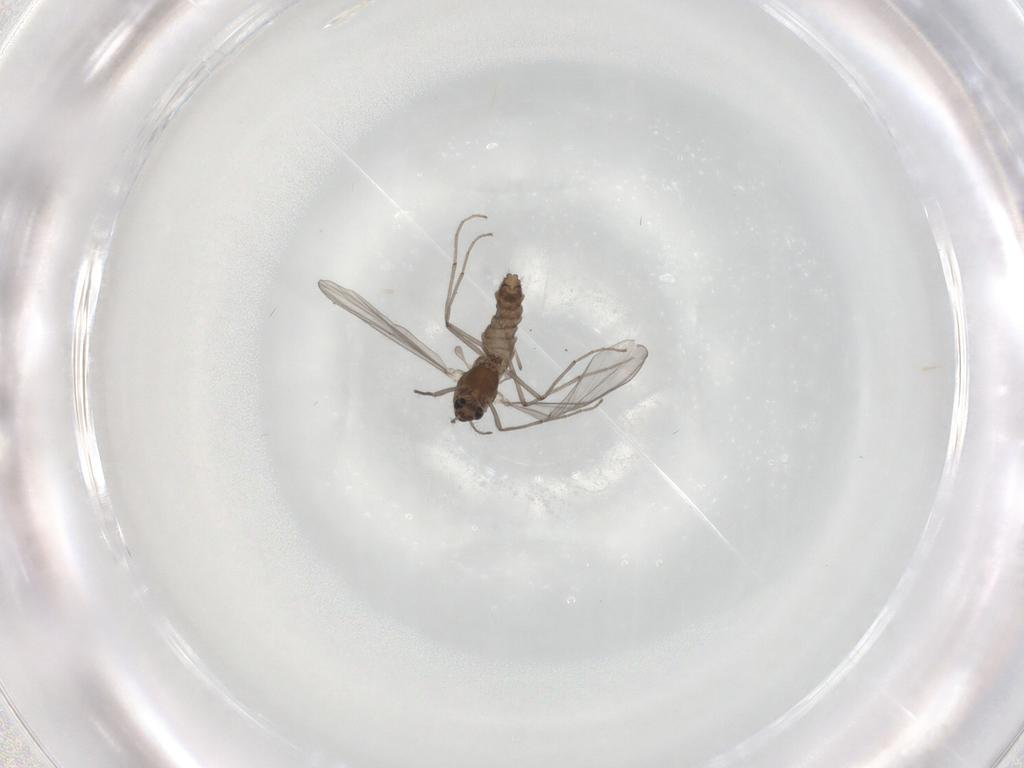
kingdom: Animalia
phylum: Arthropoda
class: Insecta
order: Diptera
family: Chironomidae
